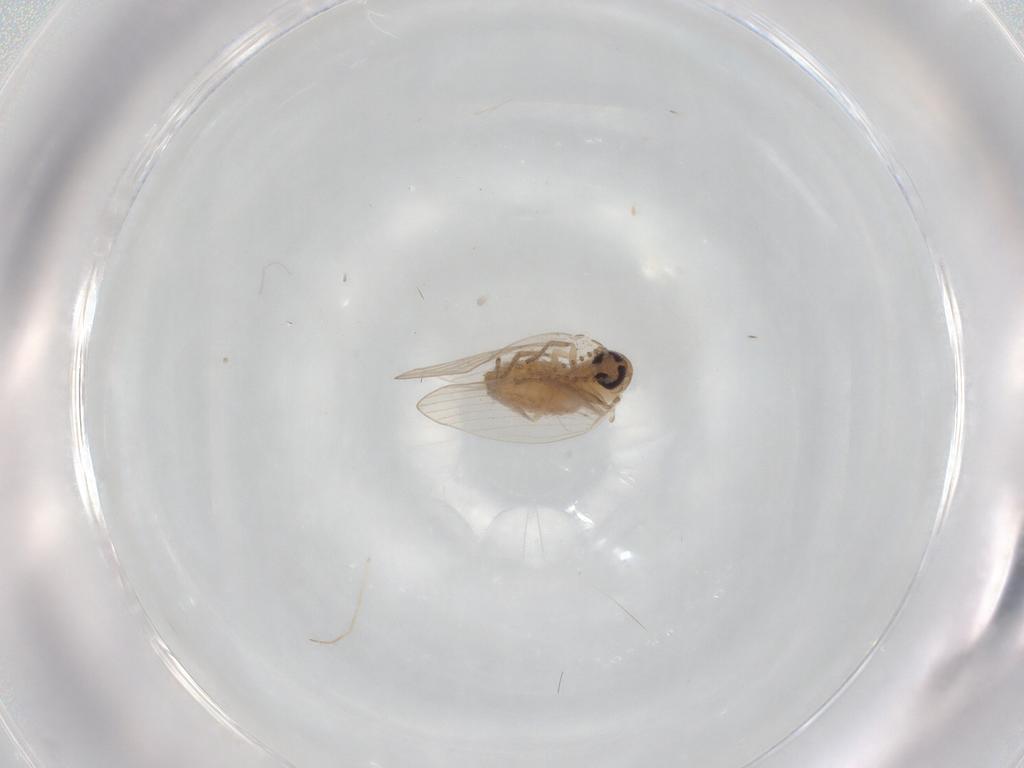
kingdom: Animalia
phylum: Arthropoda
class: Insecta
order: Diptera
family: Psychodidae
